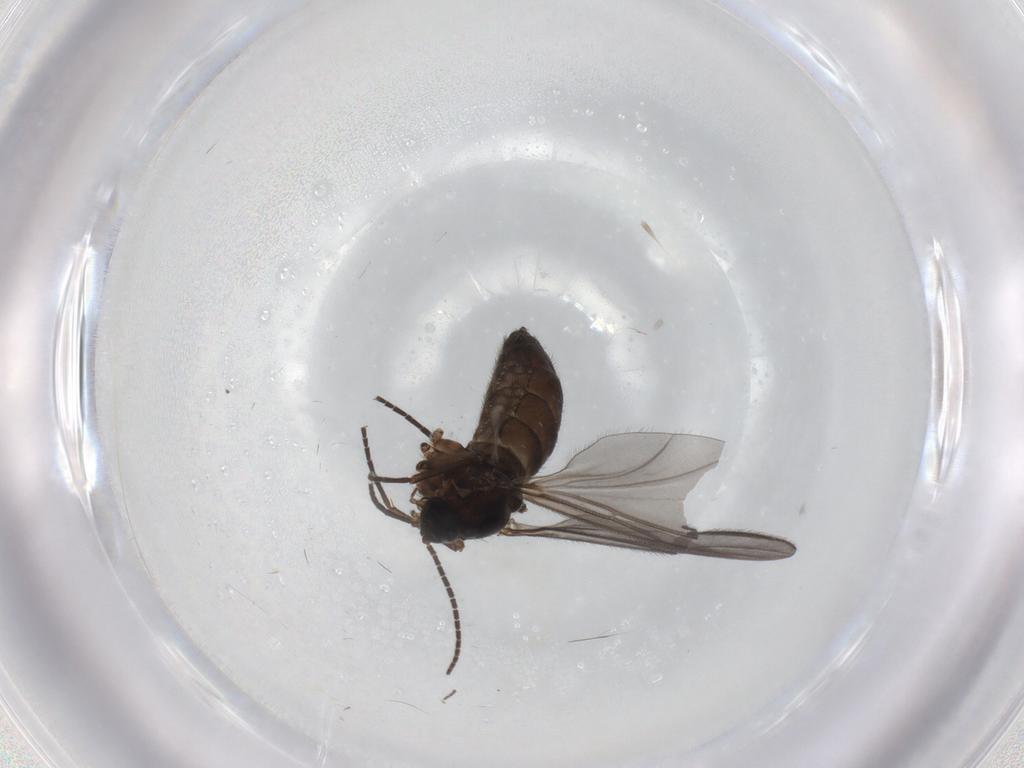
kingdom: Animalia
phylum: Arthropoda
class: Insecta
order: Diptera
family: Sciaridae
